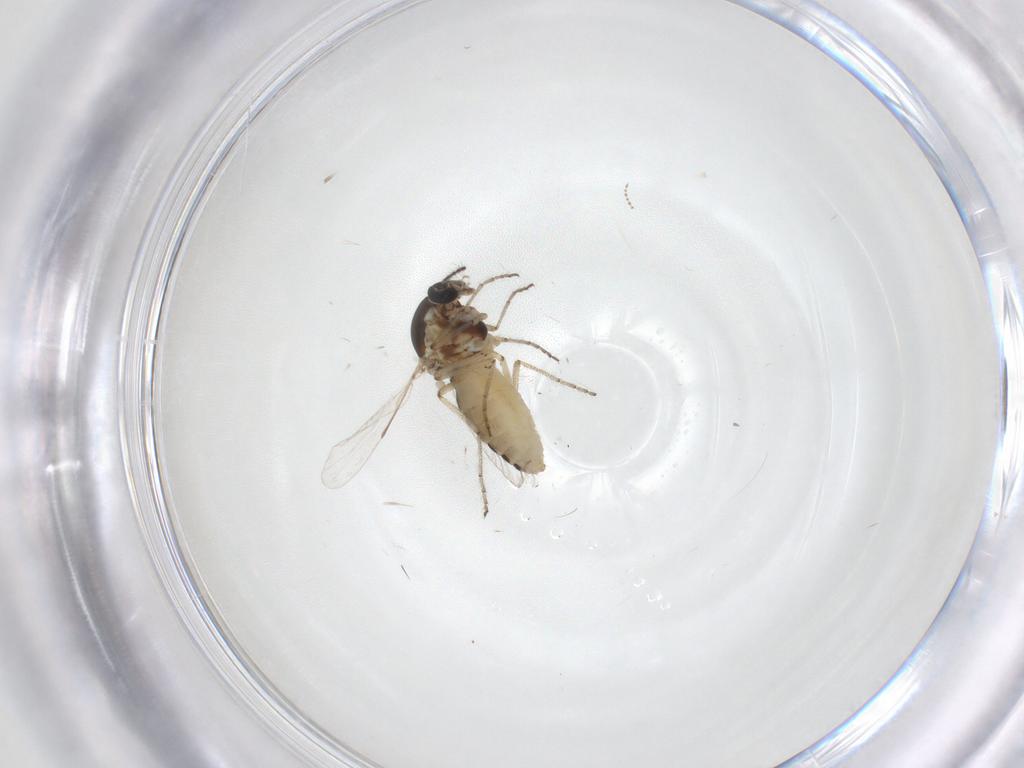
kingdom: Animalia
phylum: Arthropoda
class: Insecta
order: Diptera
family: Ceratopogonidae
